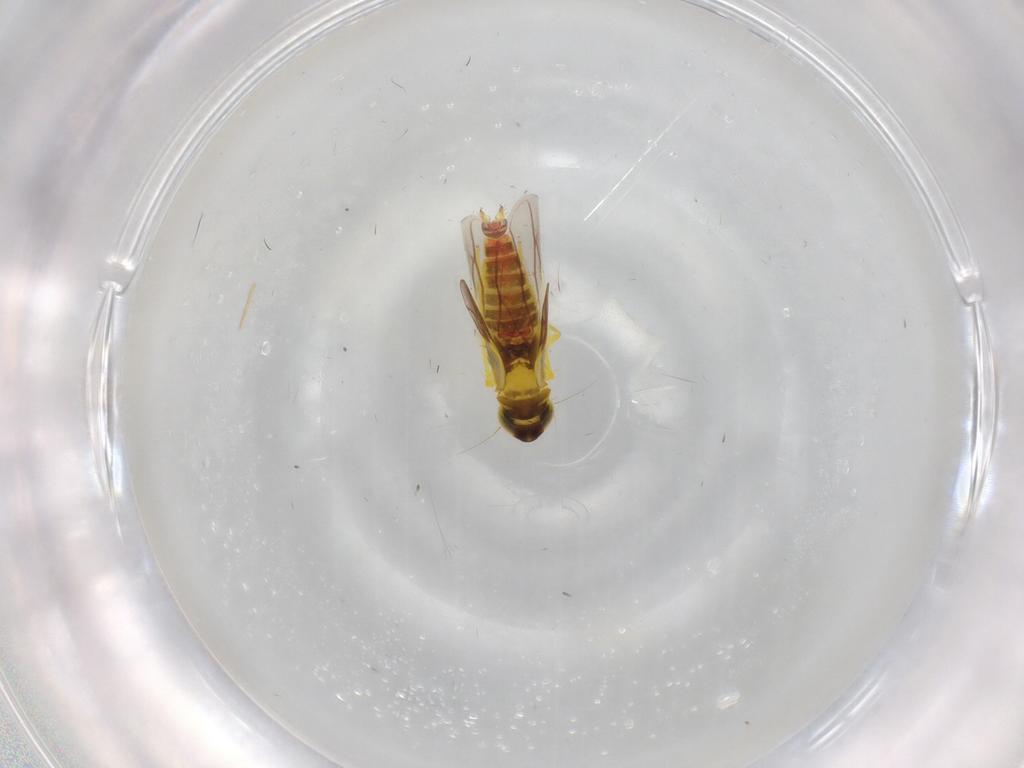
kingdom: Animalia
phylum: Arthropoda
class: Insecta
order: Hemiptera
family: Cicadellidae
